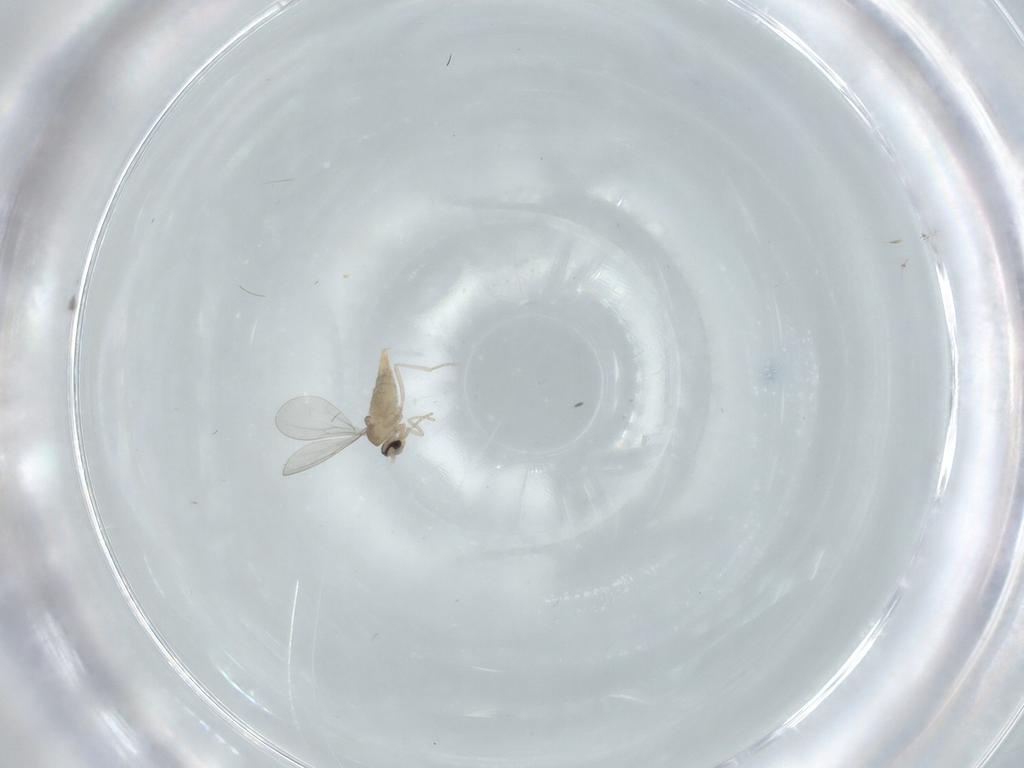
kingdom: Animalia
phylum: Arthropoda
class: Insecta
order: Diptera
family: Cecidomyiidae
